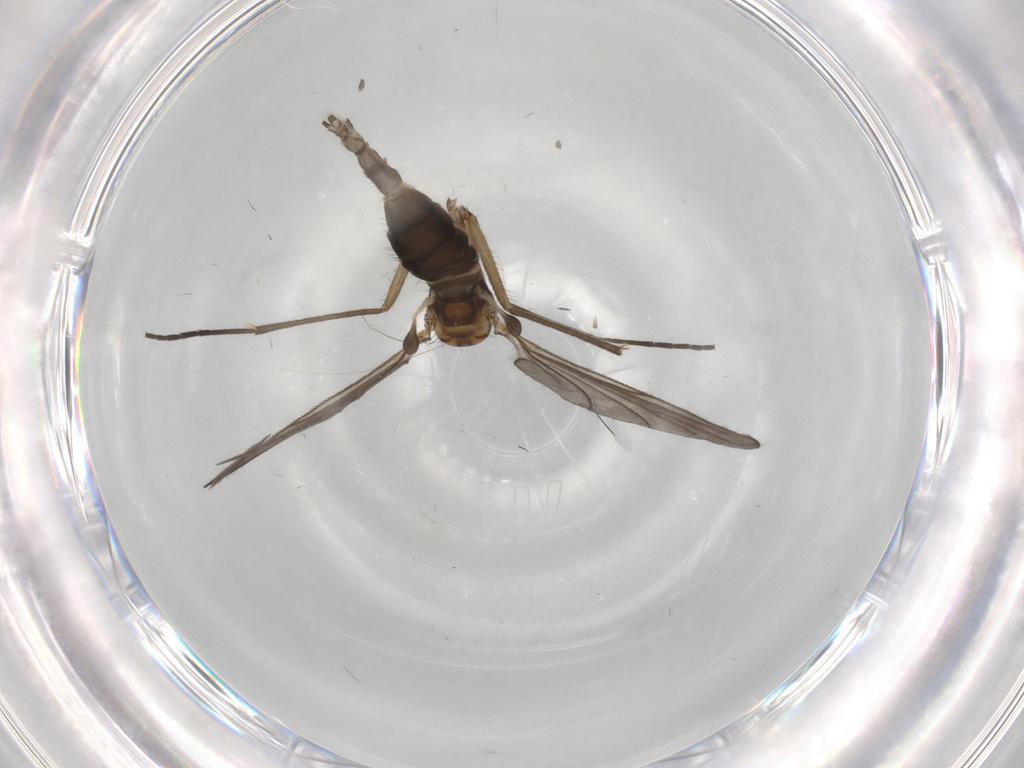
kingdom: Animalia
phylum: Arthropoda
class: Insecta
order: Diptera
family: Sciaridae
